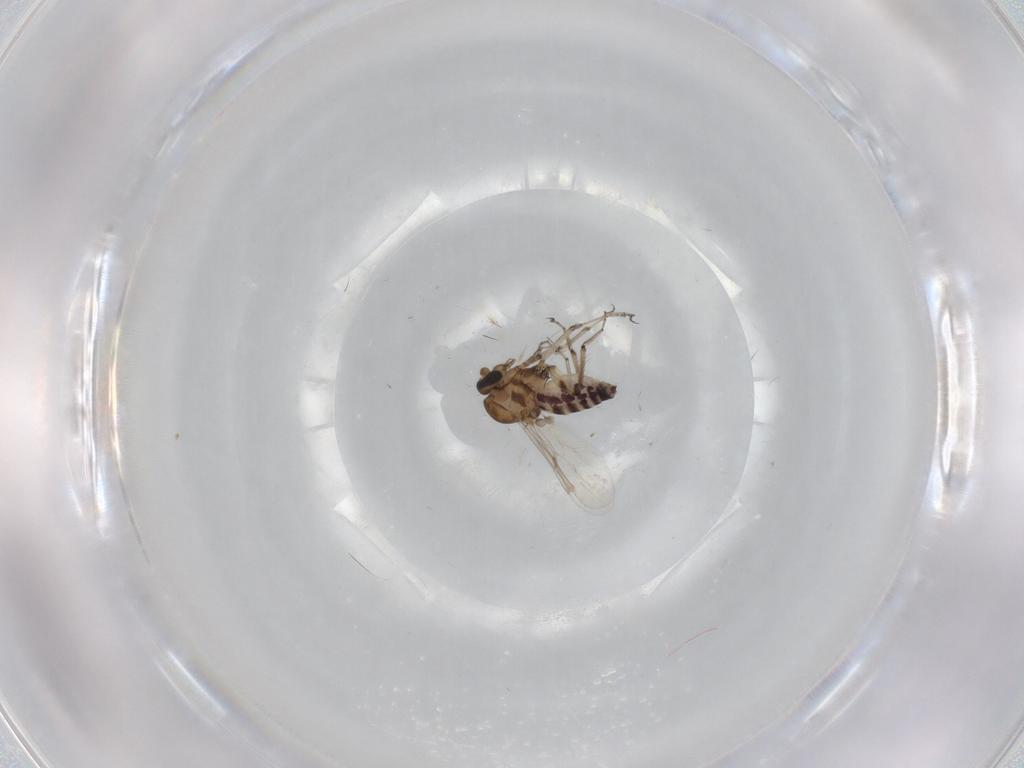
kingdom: Animalia
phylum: Arthropoda
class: Insecta
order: Diptera
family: Ceratopogonidae
